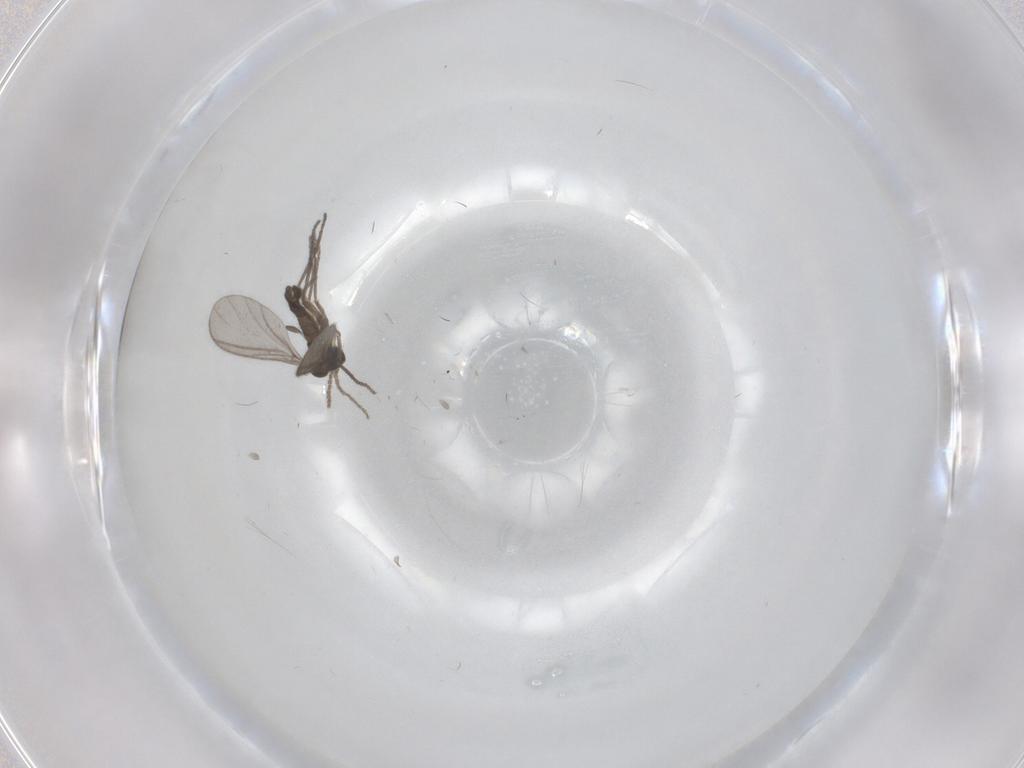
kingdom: Animalia
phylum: Arthropoda
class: Insecta
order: Diptera
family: Sciaridae
